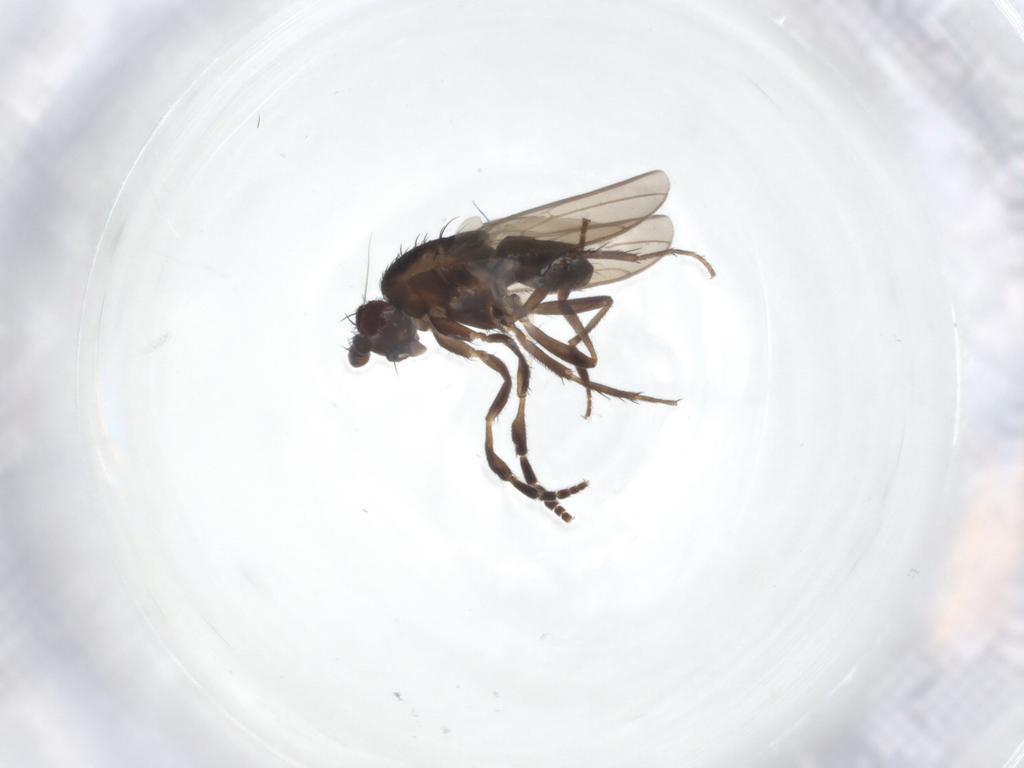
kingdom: Animalia
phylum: Arthropoda
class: Insecta
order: Diptera
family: Sphaeroceridae
